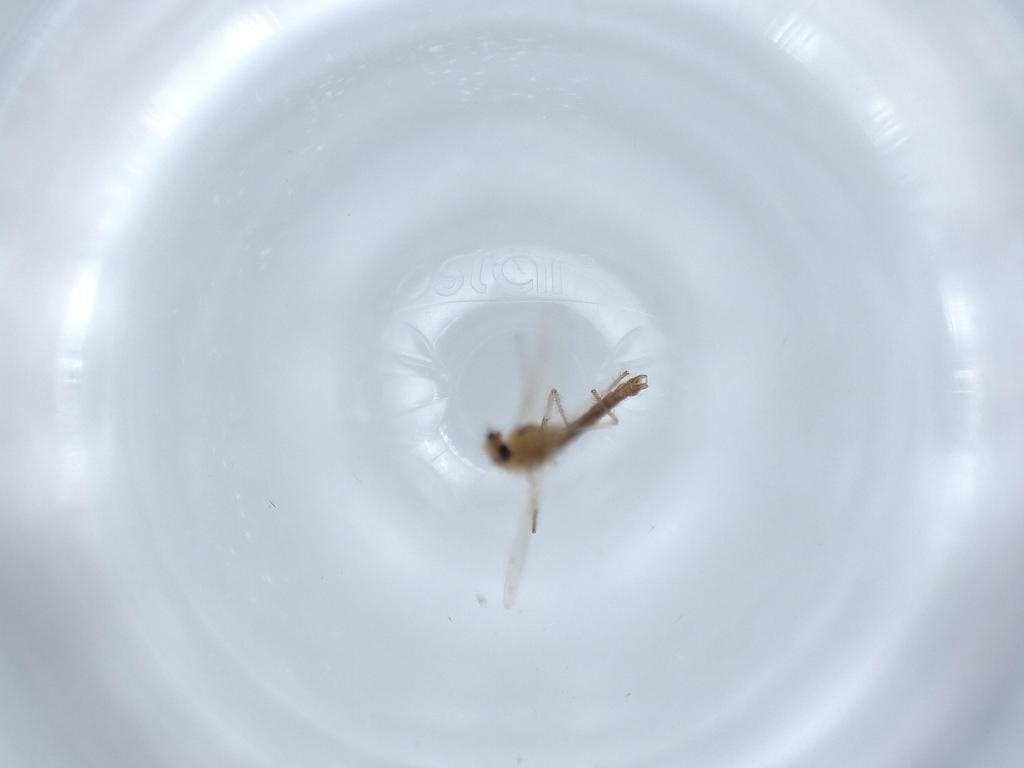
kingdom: Animalia
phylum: Arthropoda
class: Insecta
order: Diptera
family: Chironomidae
